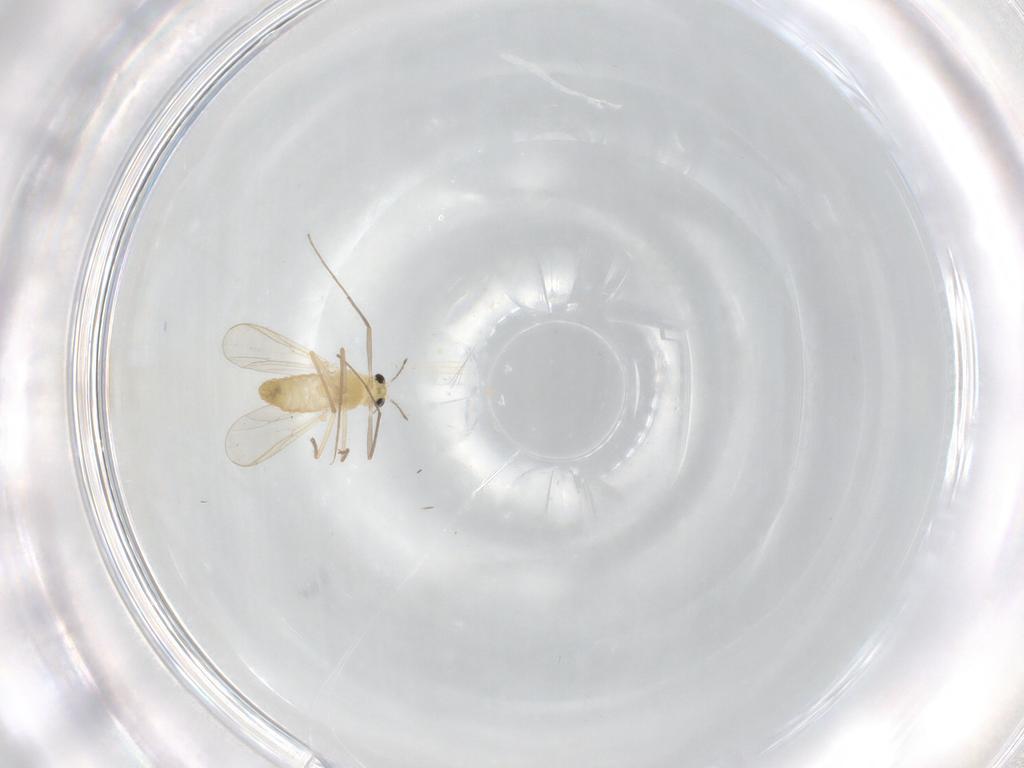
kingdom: Animalia
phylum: Arthropoda
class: Insecta
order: Diptera
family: Chironomidae
